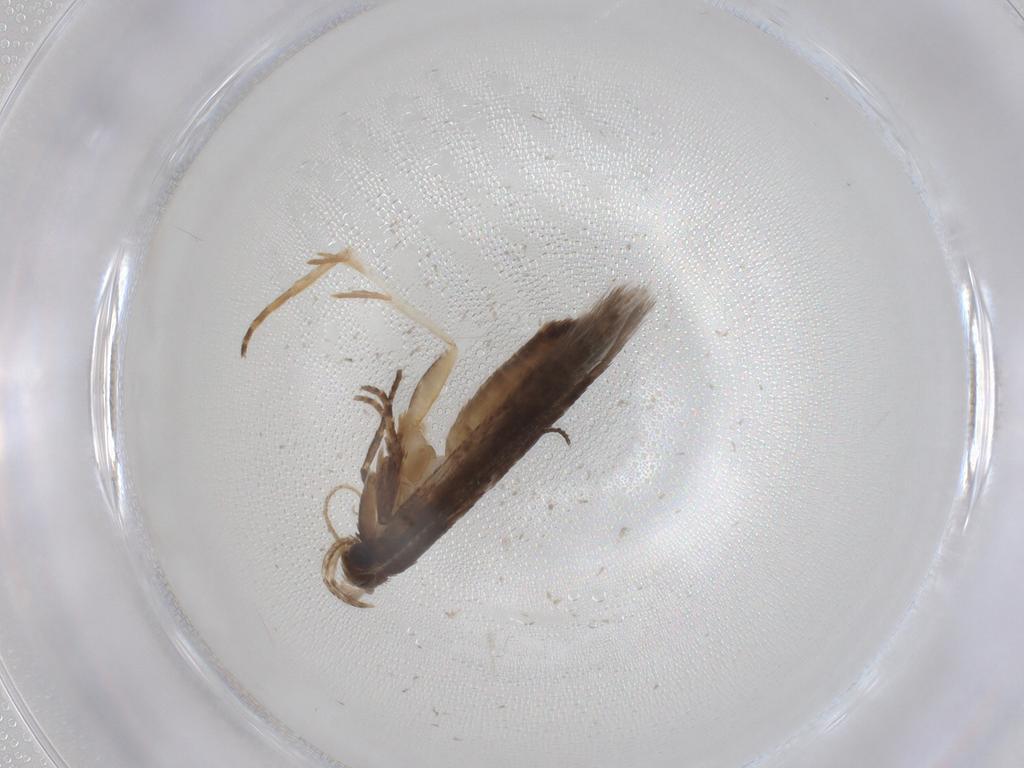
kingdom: Animalia
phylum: Arthropoda
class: Insecta
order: Lepidoptera
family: Gelechiidae
